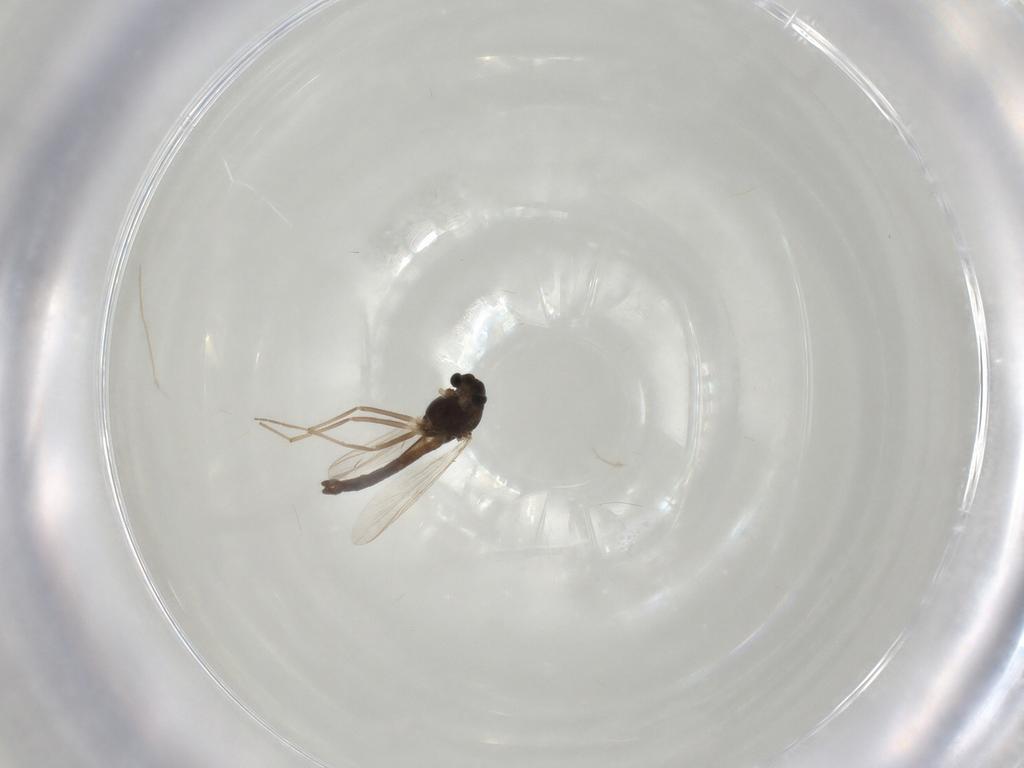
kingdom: Animalia
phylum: Arthropoda
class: Insecta
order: Diptera
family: Chironomidae
